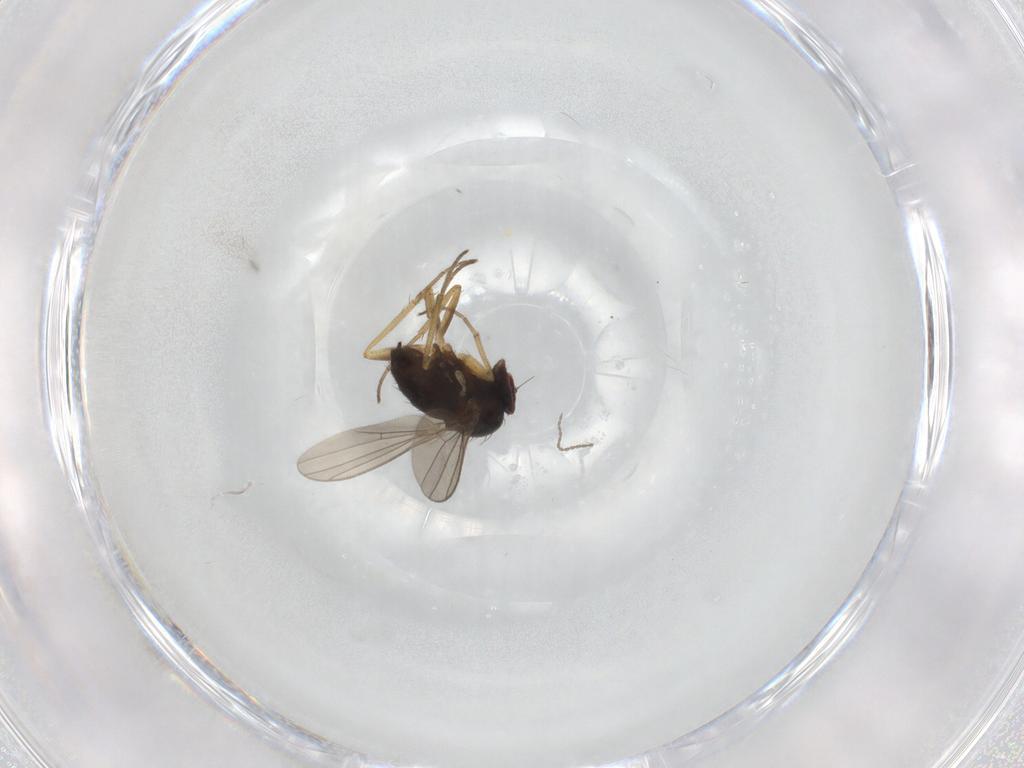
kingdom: Animalia
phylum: Arthropoda
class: Insecta
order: Diptera
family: Dolichopodidae
